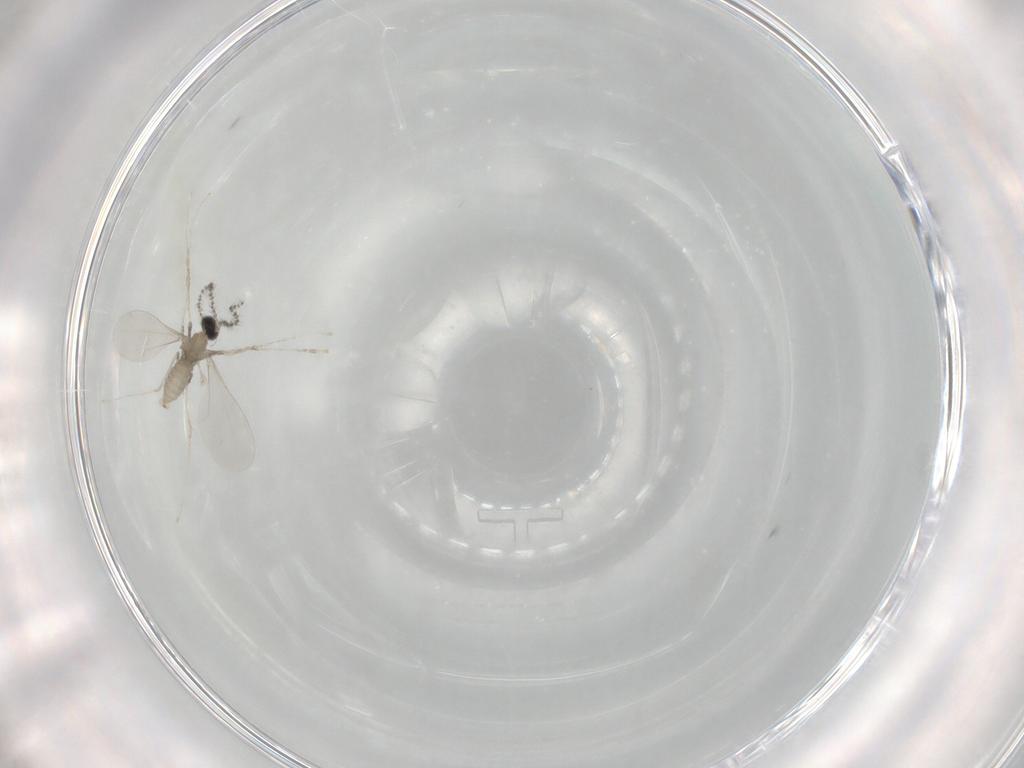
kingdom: Animalia
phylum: Arthropoda
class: Insecta
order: Diptera
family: Cecidomyiidae
